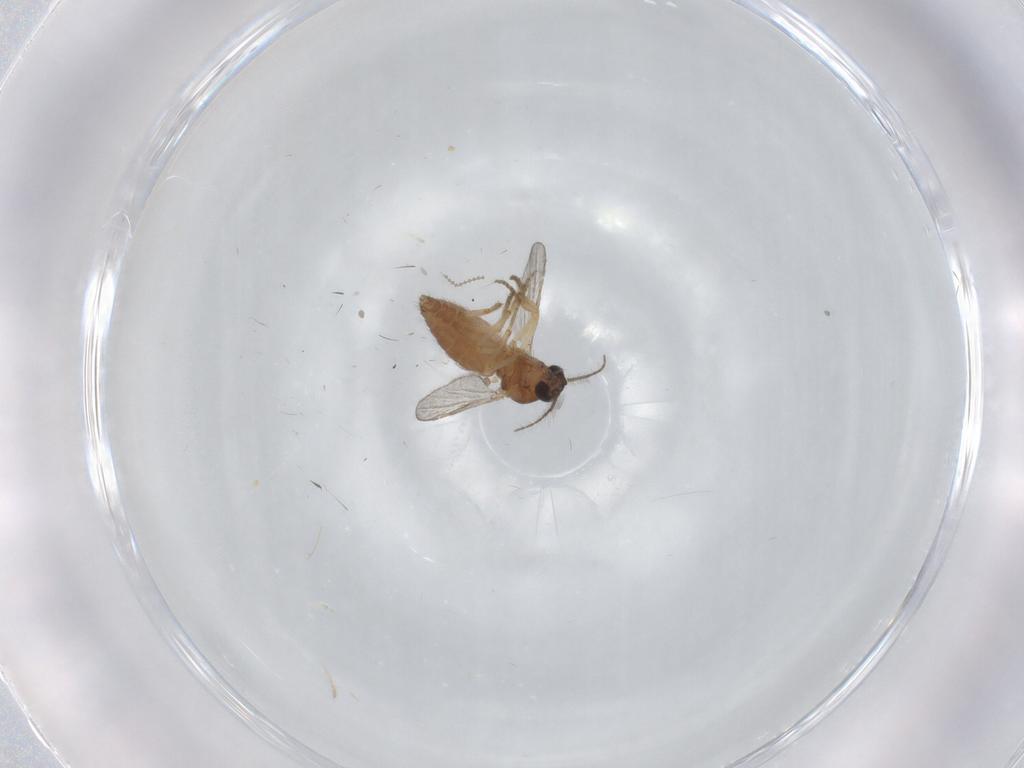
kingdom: Animalia
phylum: Arthropoda
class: Insecta
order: Diptera
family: Ceratopogonidae
